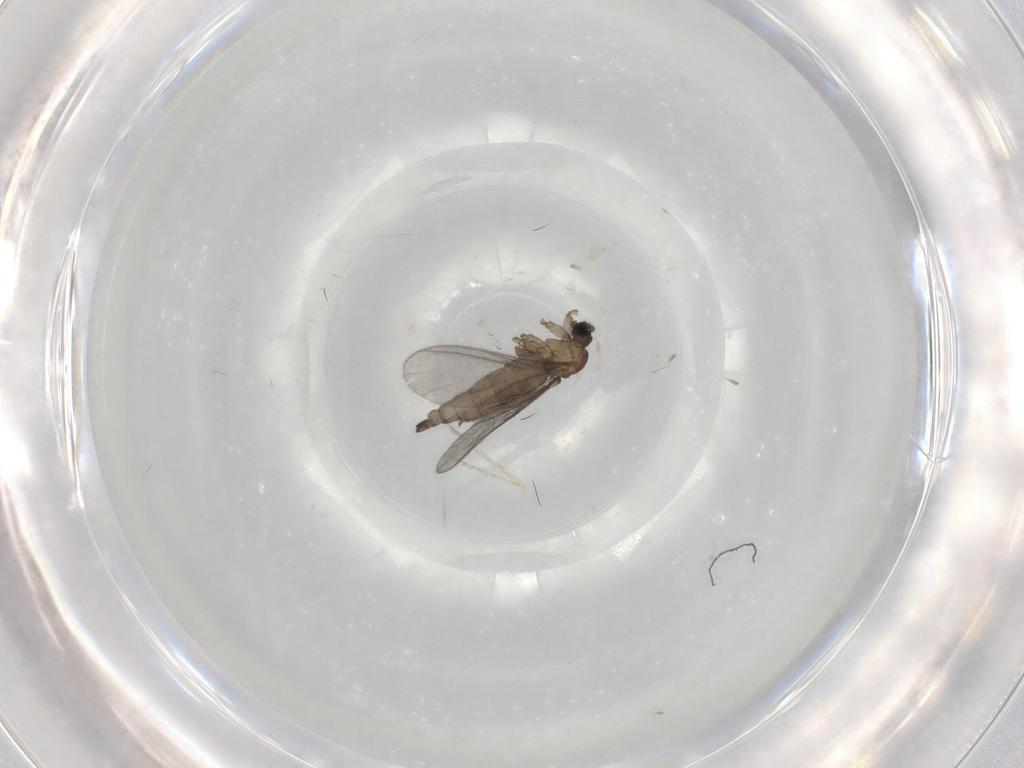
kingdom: Animalia
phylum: Arthropoda
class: Insecta
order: Diptera
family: Sciaridae
